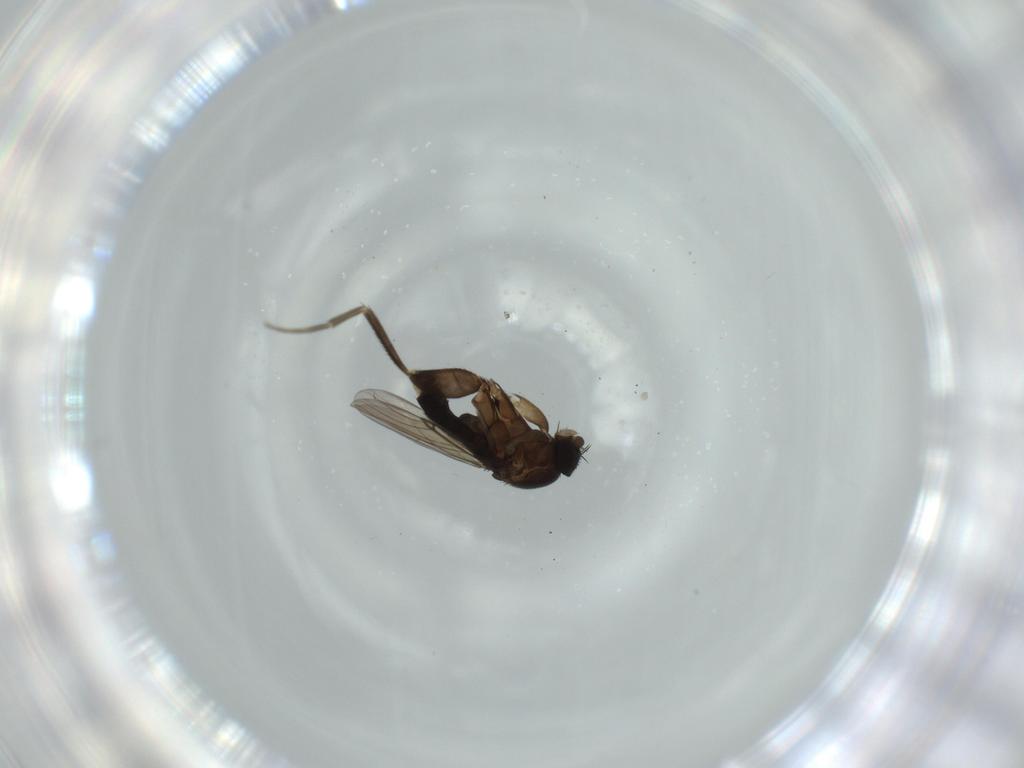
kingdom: Animalia
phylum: Arthropoda
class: Insecta
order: Diptera
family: Phoridae
